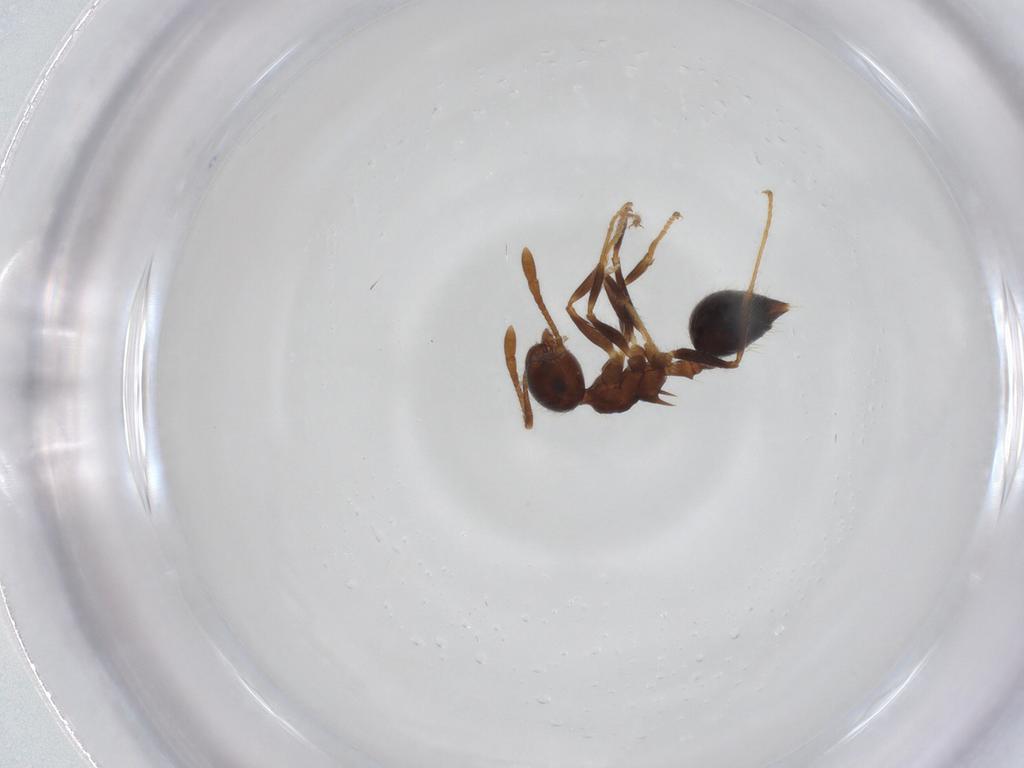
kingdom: Animalia
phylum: Arthropoda
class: Insecta
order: Hymenoptera
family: Formicidae
